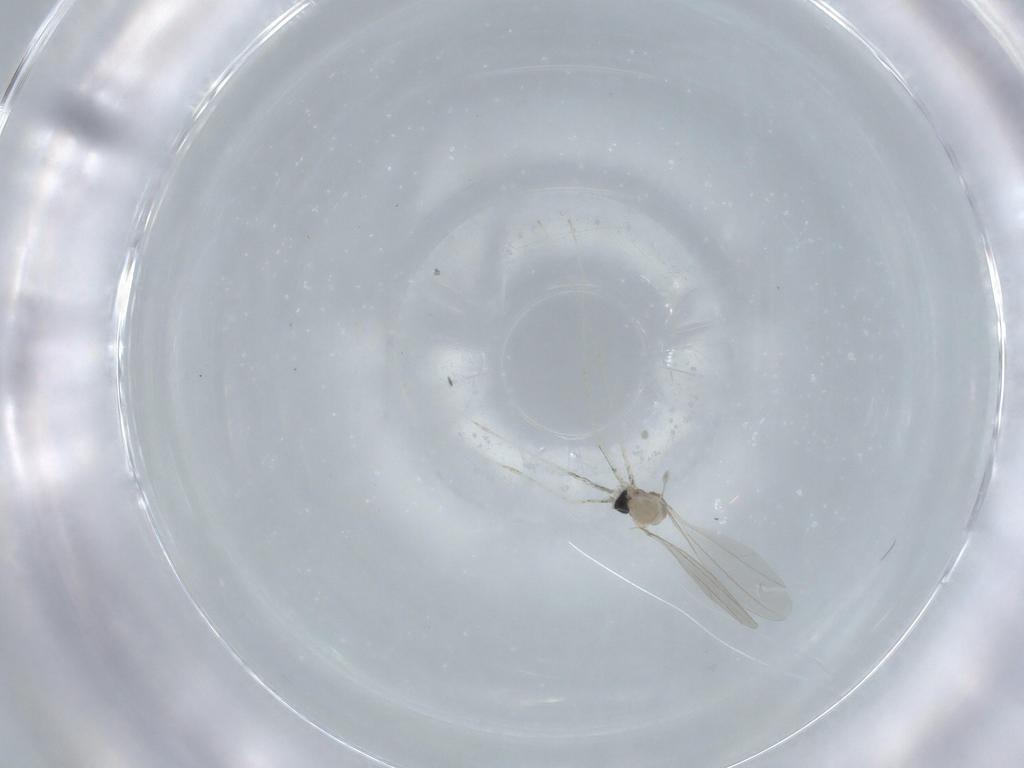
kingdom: Animalia
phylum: Arthropoda
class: Insecta
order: Diptera
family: Cecidomyiidae
